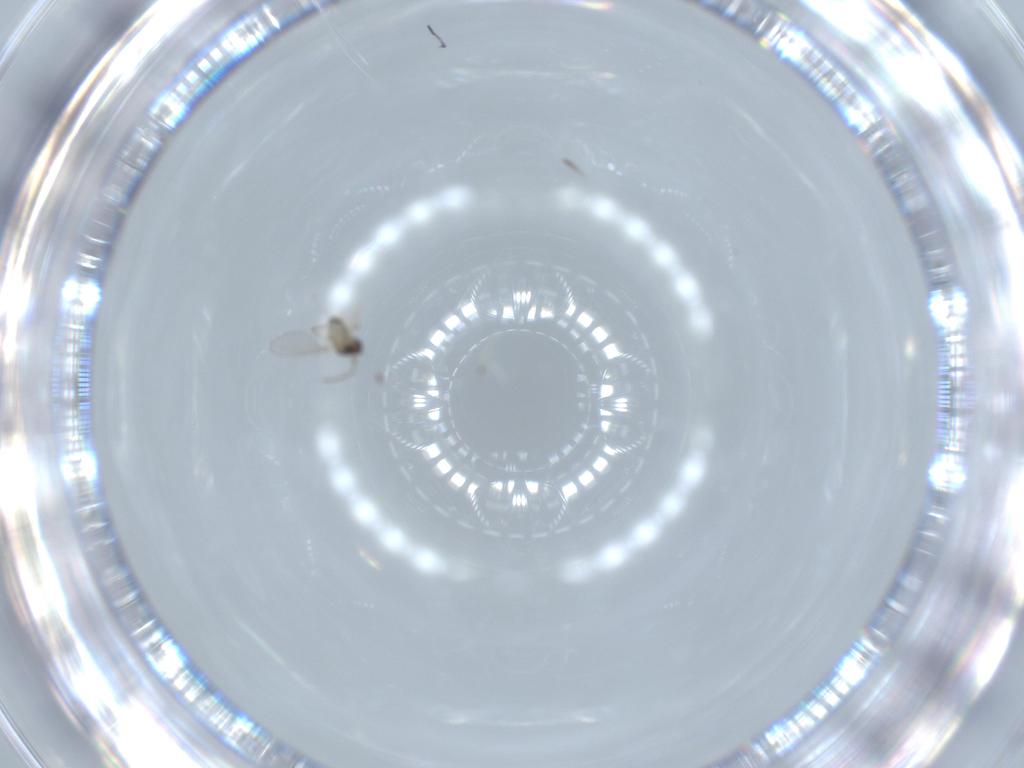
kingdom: Animalia
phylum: Arthropoda
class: Insecta
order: Diptera
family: Cecidomyiidae
